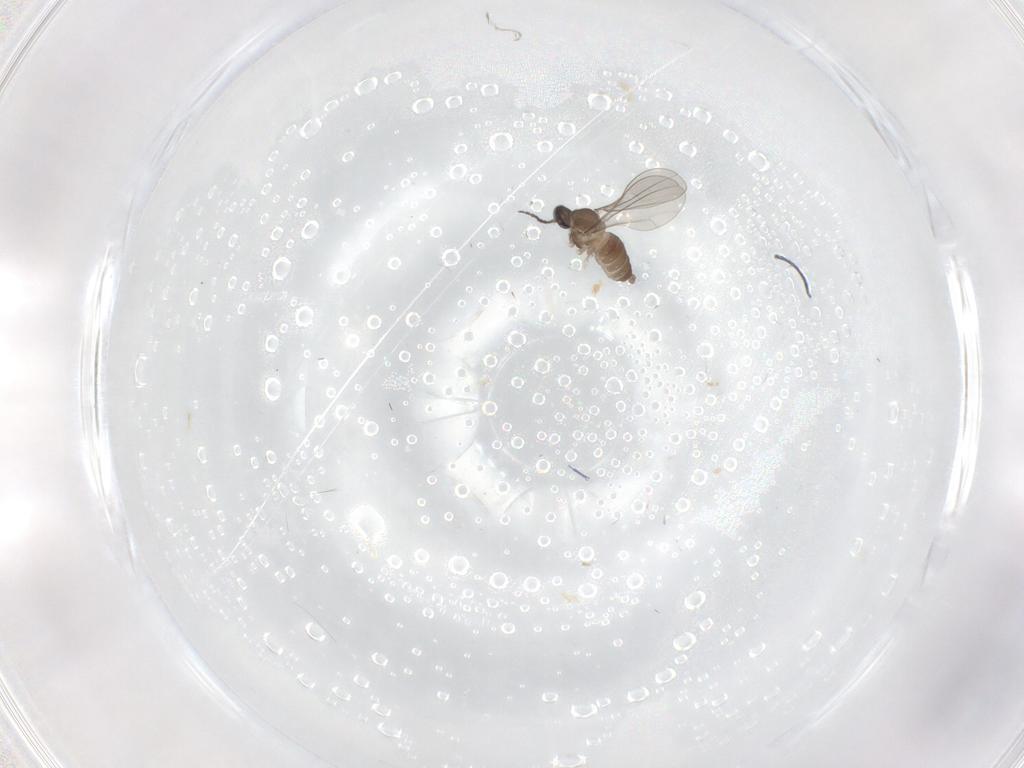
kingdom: Animalia
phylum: Arthropoda
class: Insecta
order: Diptera
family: Cecidomyiidae
